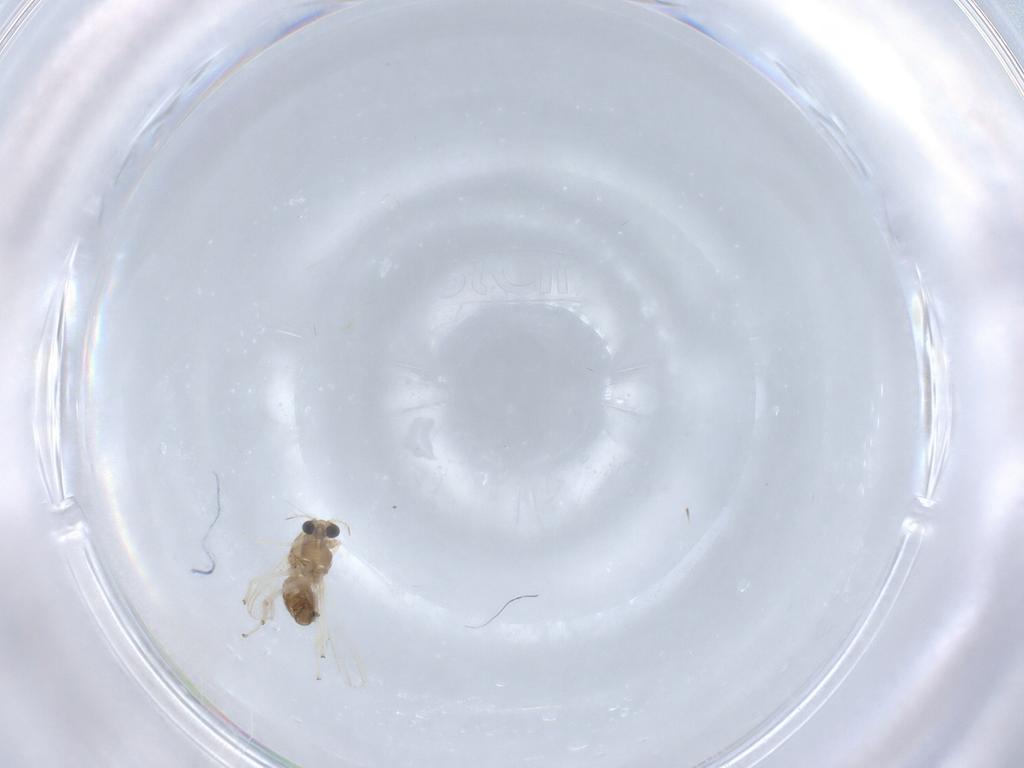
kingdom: Animalia
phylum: Arthropoda
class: Insecta
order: Diptera
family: Chironomidae
